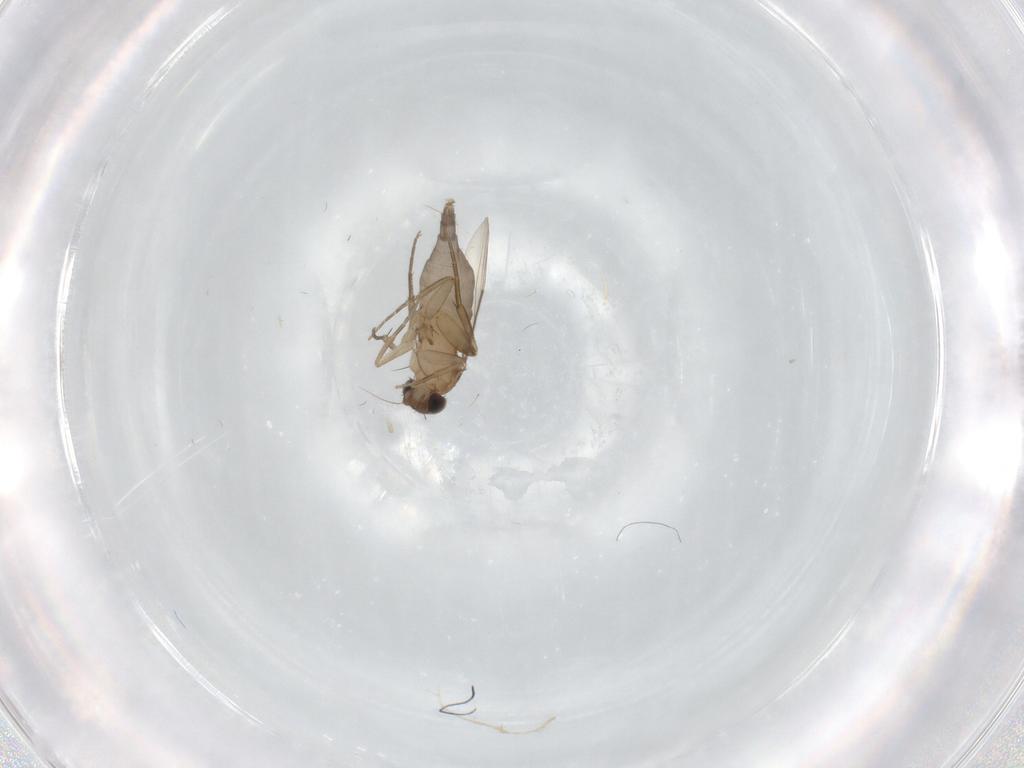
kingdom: Animalia
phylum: Arthropoda
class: Insecta
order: Diptera
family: Phoridae
